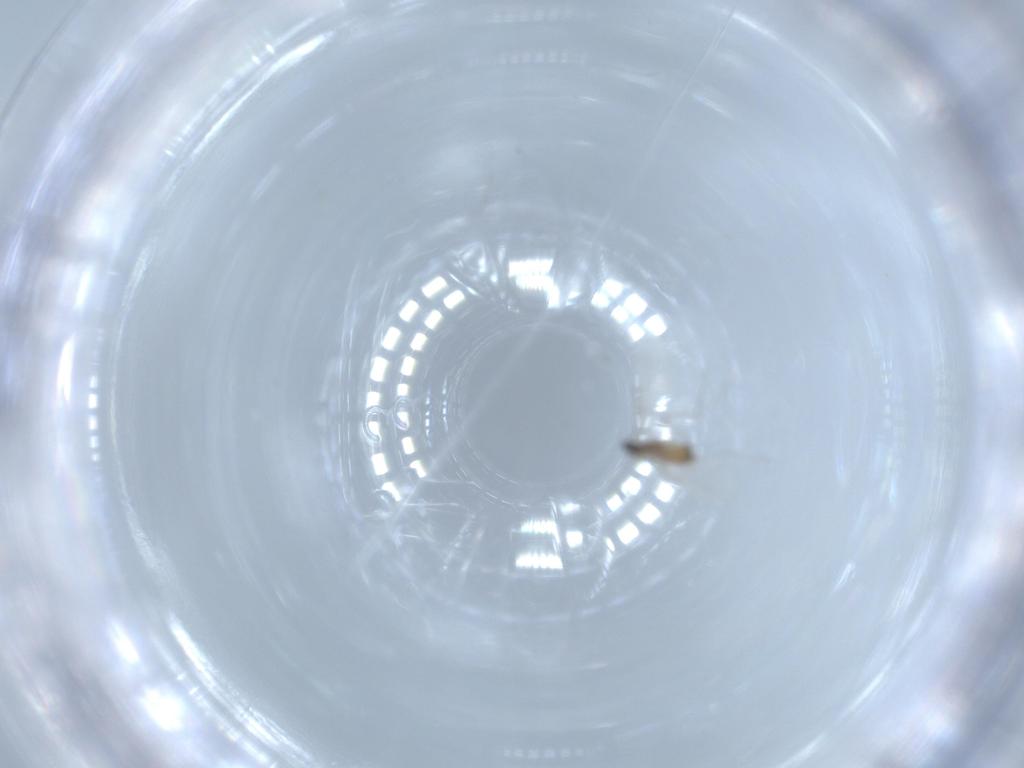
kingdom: Animalia
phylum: Arthropoda
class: Insecta
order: Diptera
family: Cecidomyiidae
